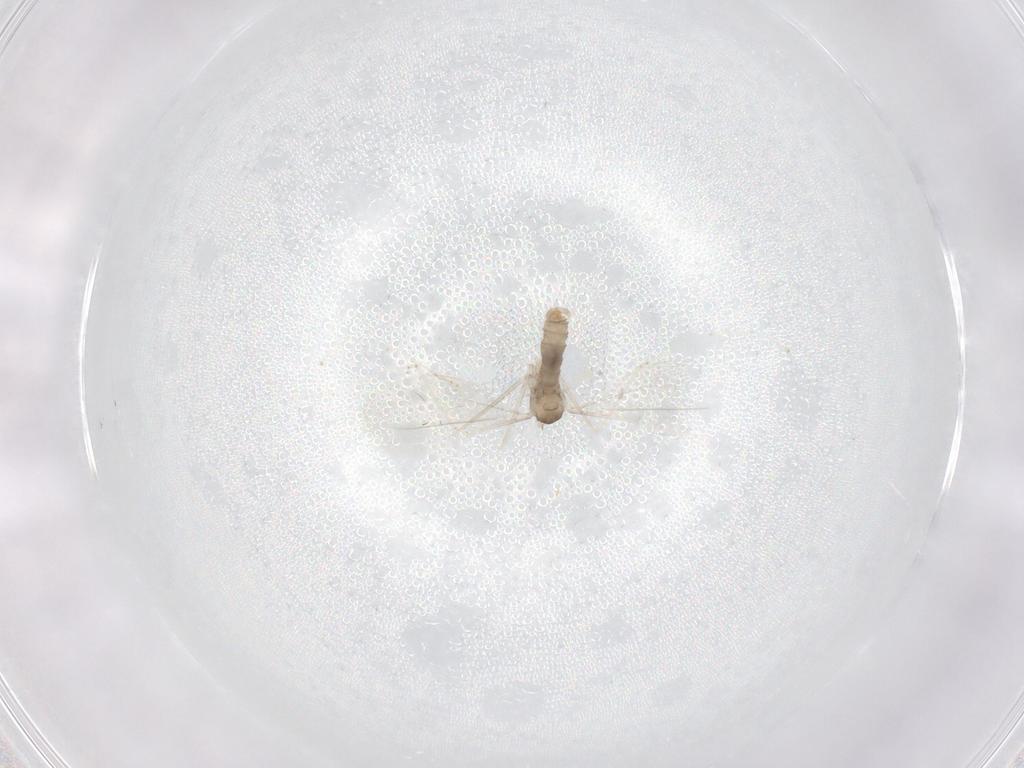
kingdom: Animalia
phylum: Arthropoda
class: Insecta
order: Diptera
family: Cecidomyiidae
